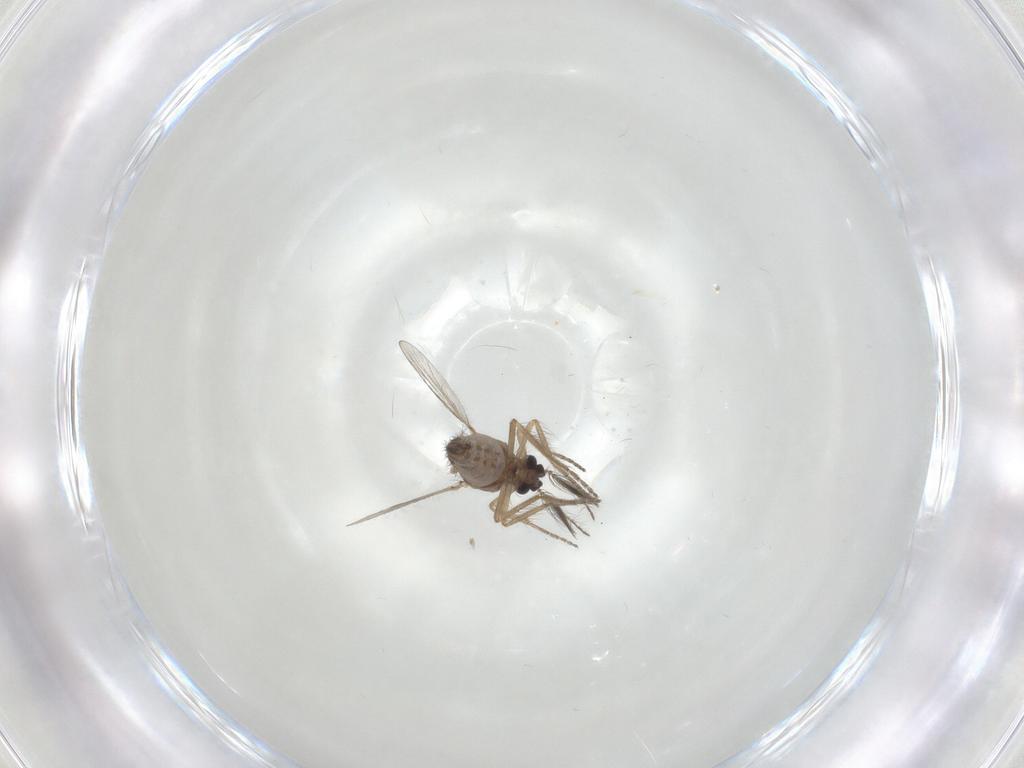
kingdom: Animalia
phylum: Arthropoda
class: Insecta
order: Diptera
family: Ceratopogonidae
